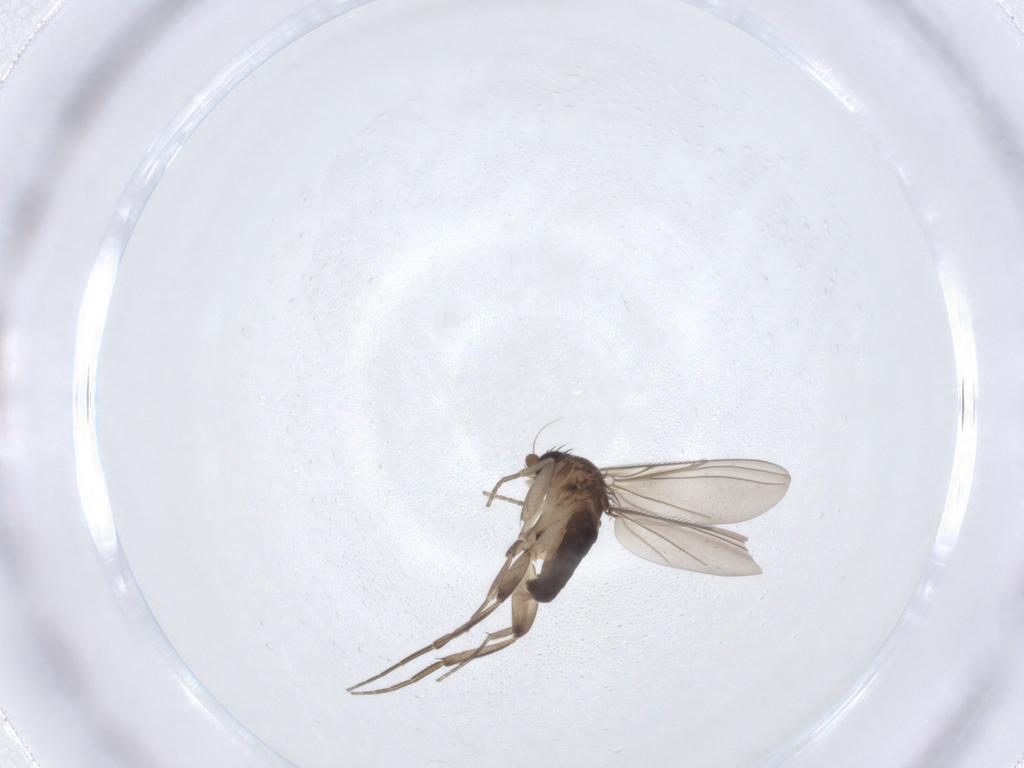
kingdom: Animalia
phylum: Arthropoda
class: Insecta
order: Diptera
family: Phoridae
